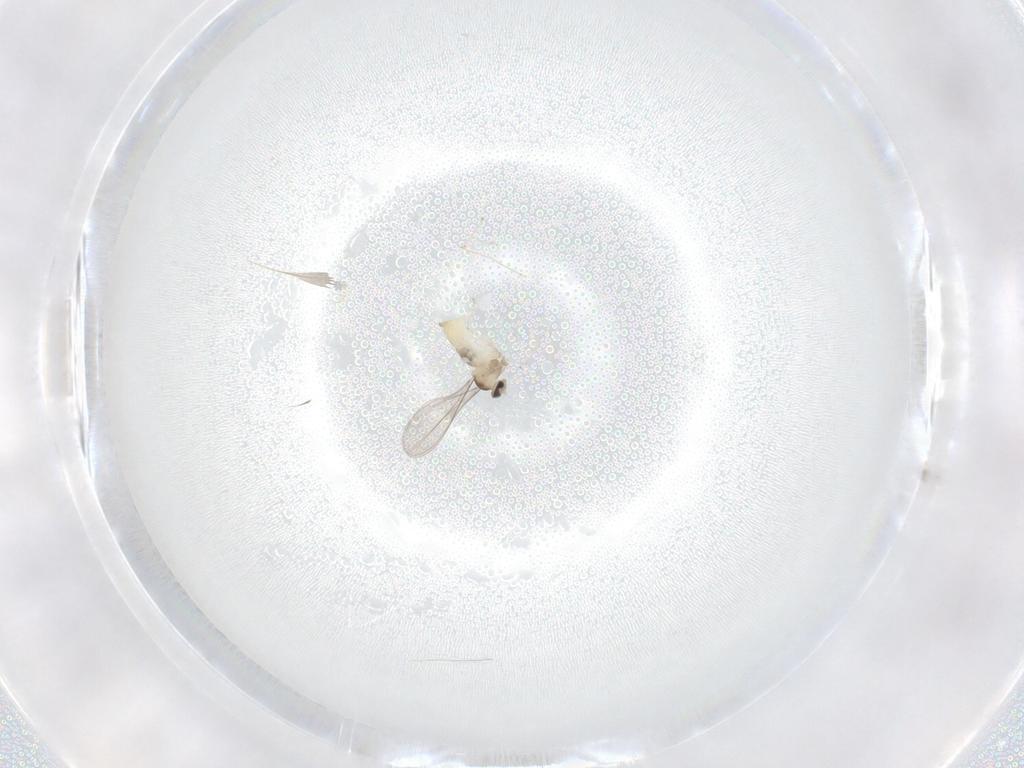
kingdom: Animalia
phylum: Arthropoda
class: Insecta
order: Diptera
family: Cecidomyiidae
